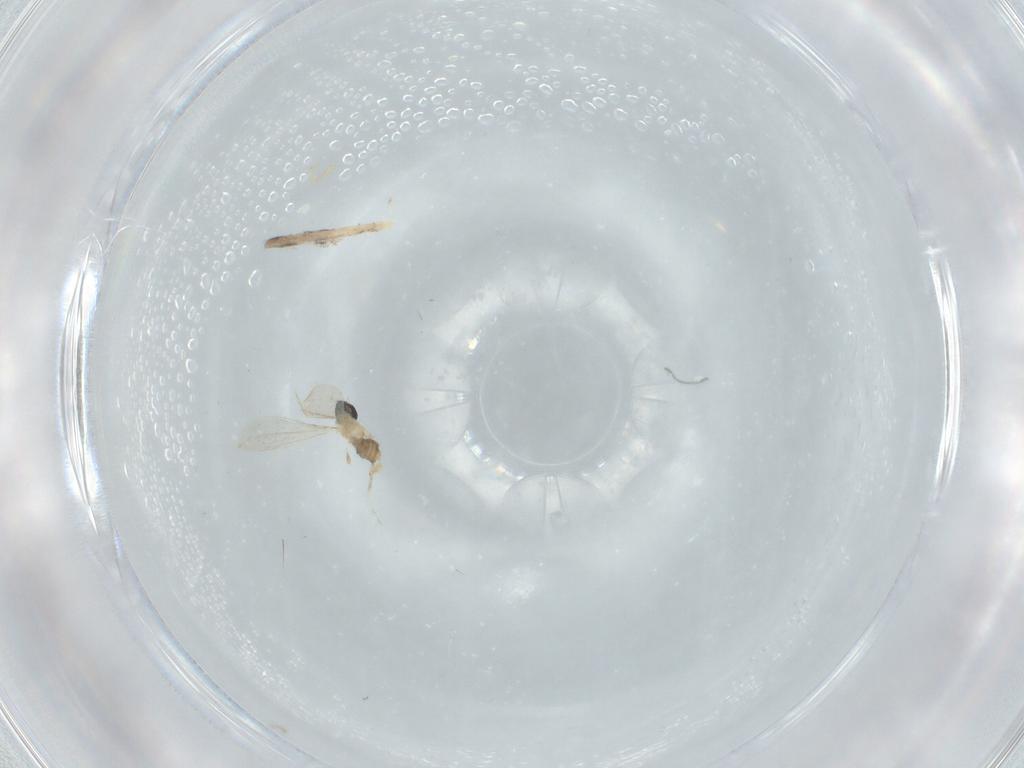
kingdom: Animalia
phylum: Arthropoda
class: Insecta
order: Diptera
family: Cecidomyiidae
